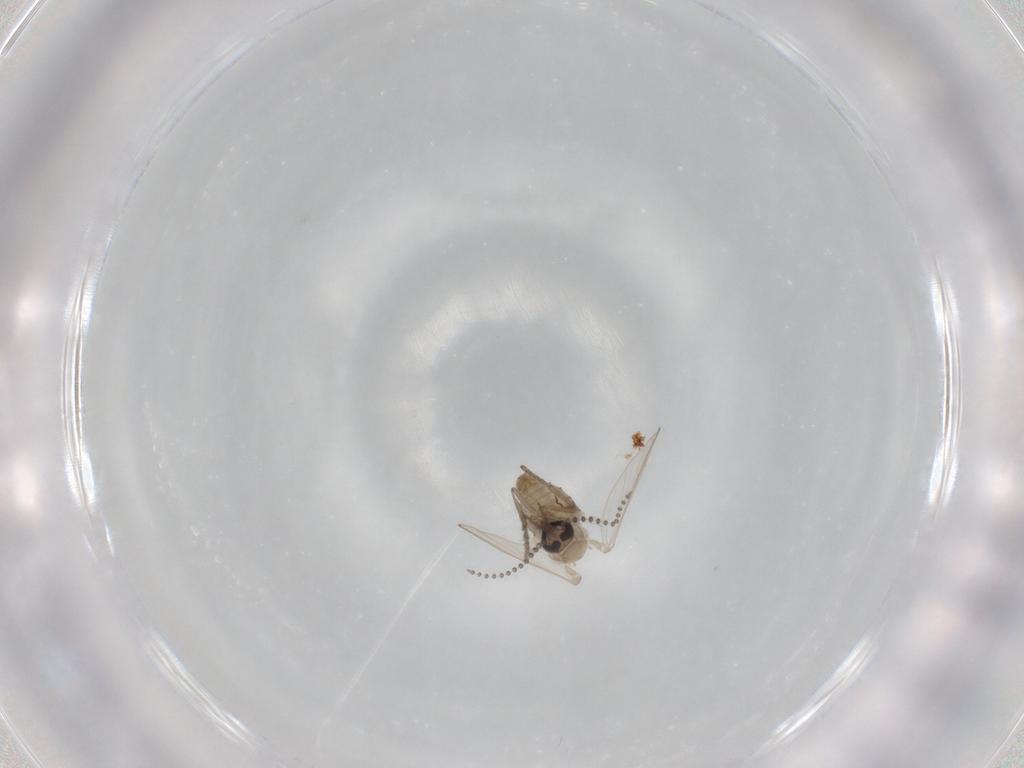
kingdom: Animalia
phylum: Arthropoda
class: Insecta
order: Diptera
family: Psychodidae
